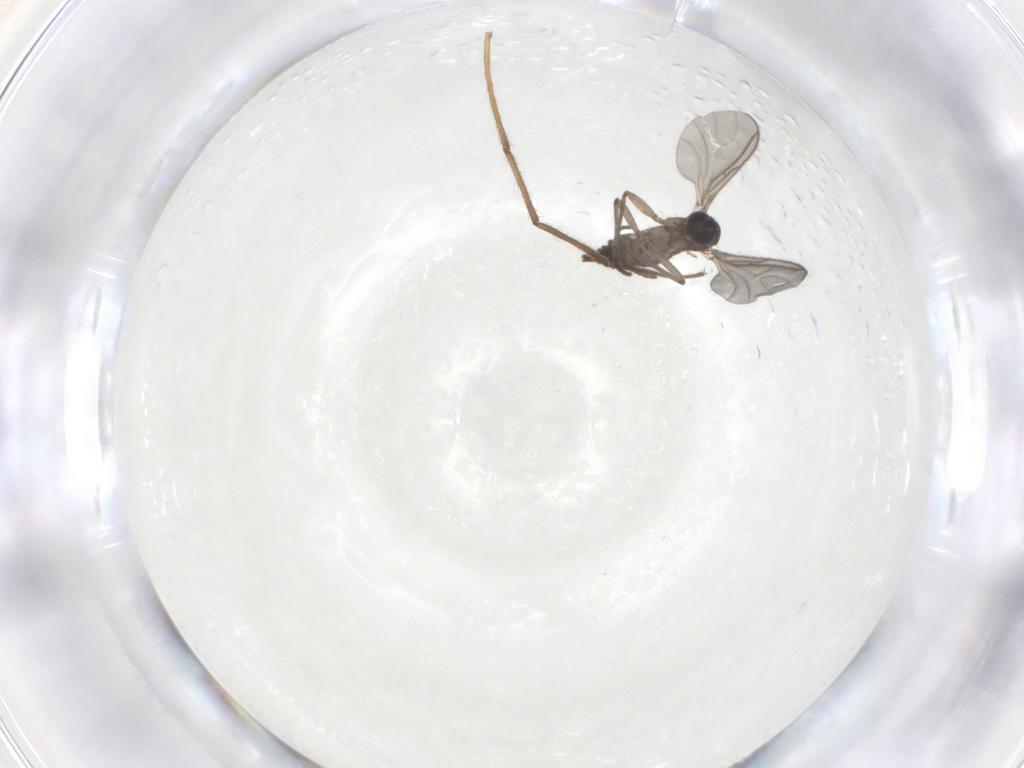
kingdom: Animalia
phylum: Arthropoda
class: Insecta
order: Diptera
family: Chironomidae
